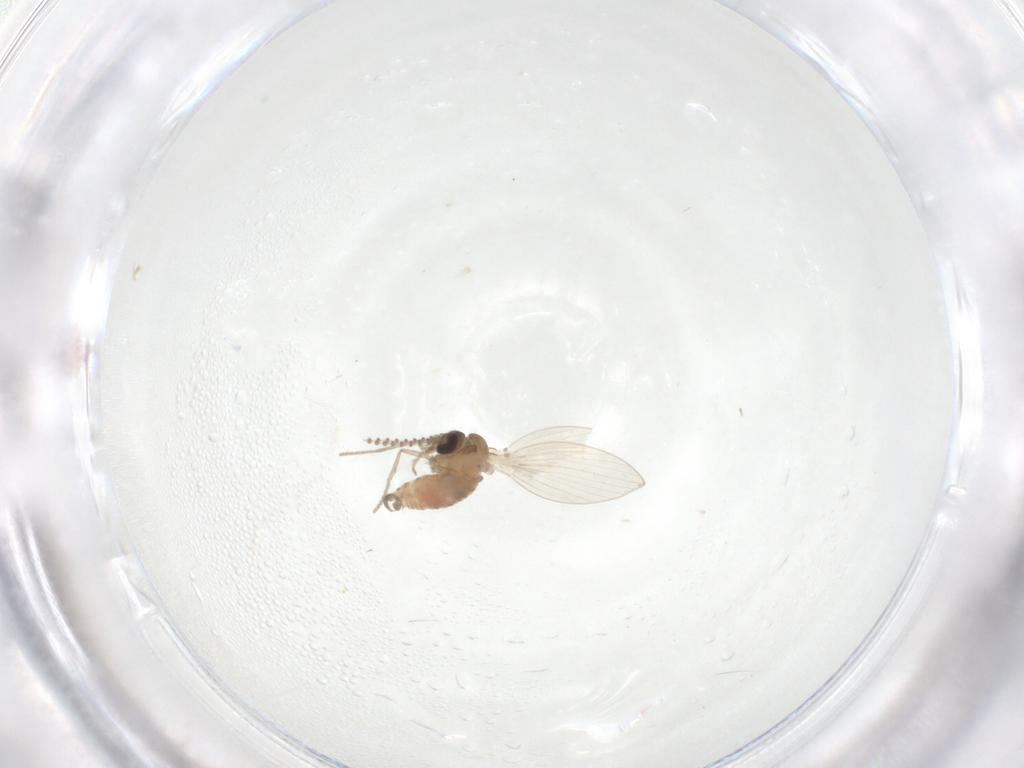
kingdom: Animalia
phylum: Arthropoda
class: Insecta
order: Diptera
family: Psychodidae
